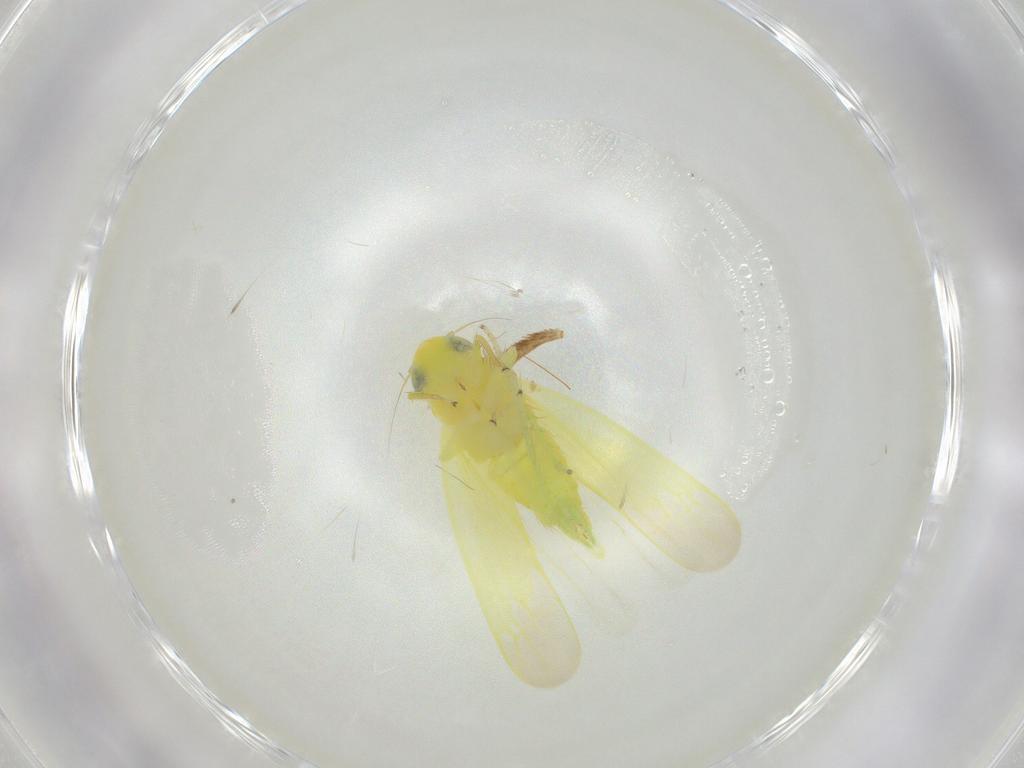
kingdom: Animalia
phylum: Arthropoda
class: Insecta
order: Hemiptera
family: Cicadellidae
